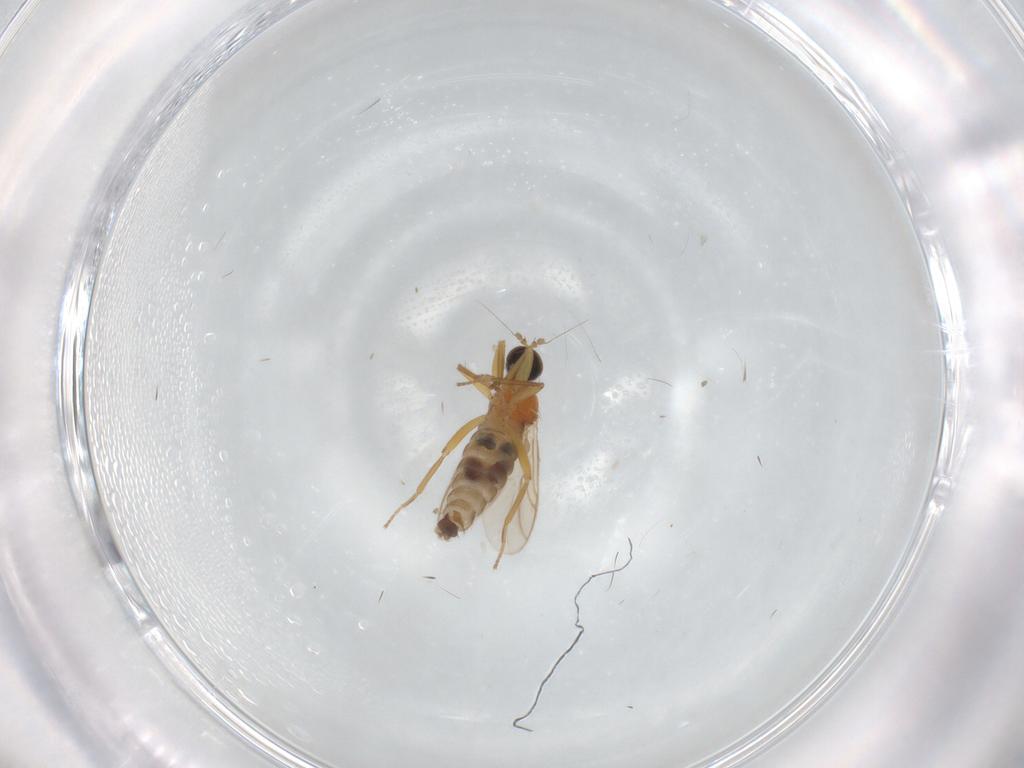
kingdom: Animalia
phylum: Arthropoda
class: Insecta
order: Diptera
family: Hybotidae
